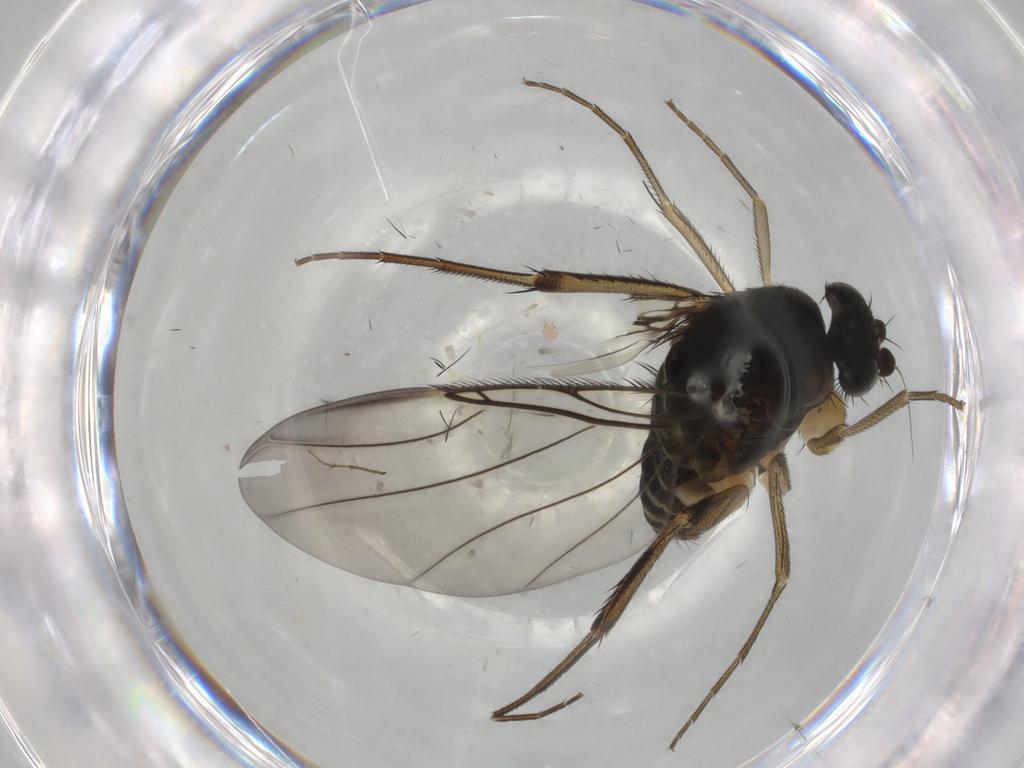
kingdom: Animalia
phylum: Arthropoda
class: Insecta
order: Diptera
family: Phoridae
